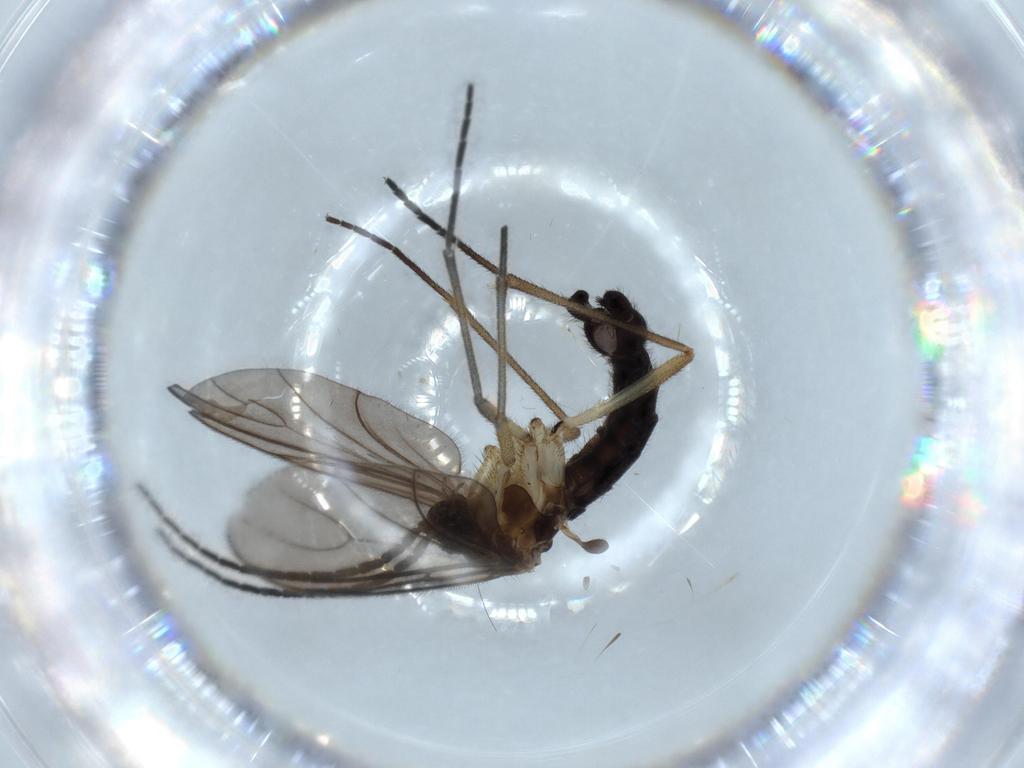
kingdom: Animalia
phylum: Arthropoda
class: Insecta
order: Diptera
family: Sciaridae
